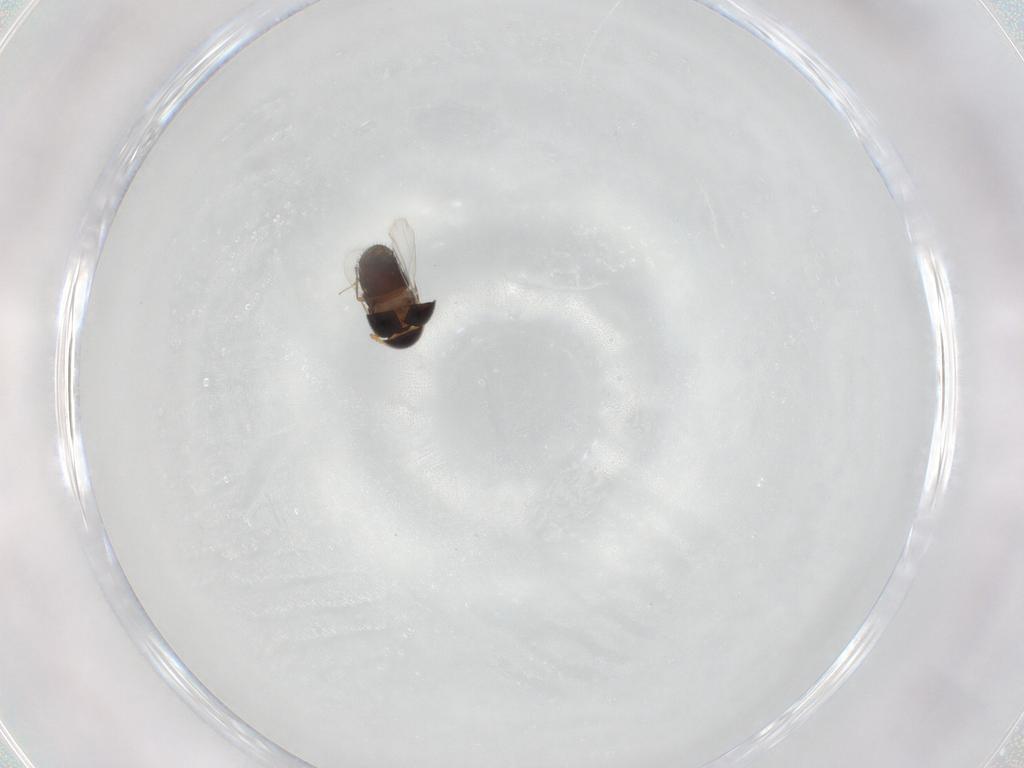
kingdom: Animalia
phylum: Arthropoda
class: Insecta
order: Coleoptera
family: Staphylinidae
